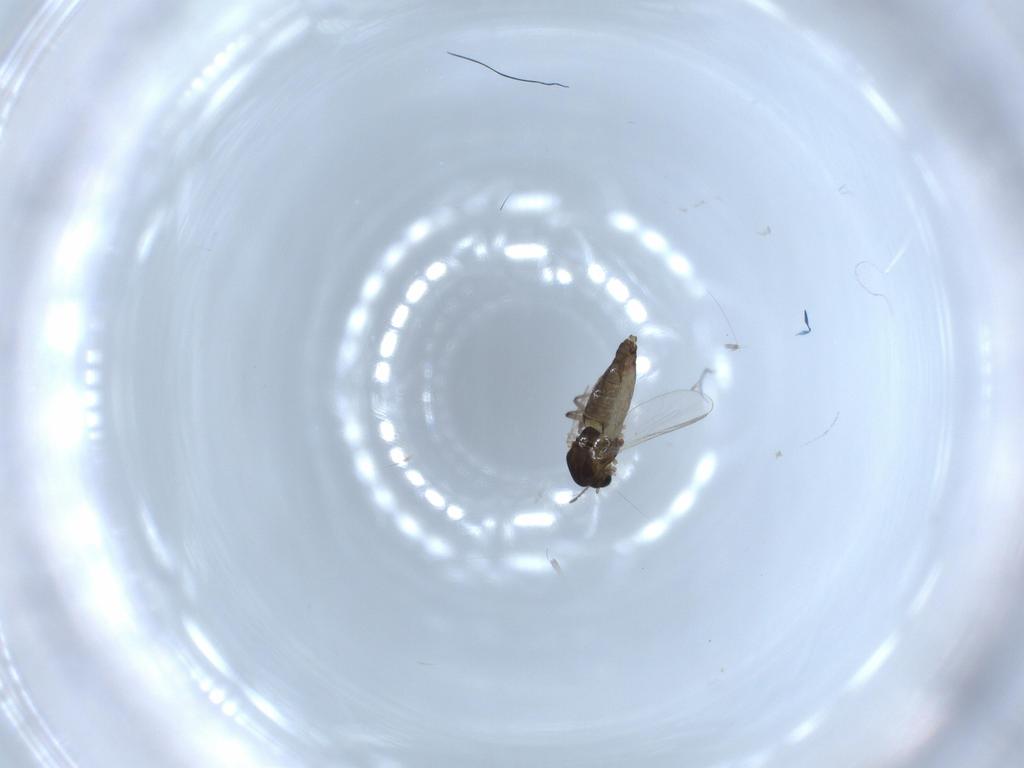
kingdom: Animalia
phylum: Arthropoda
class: Insecta
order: Diptera
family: Chironomidae
